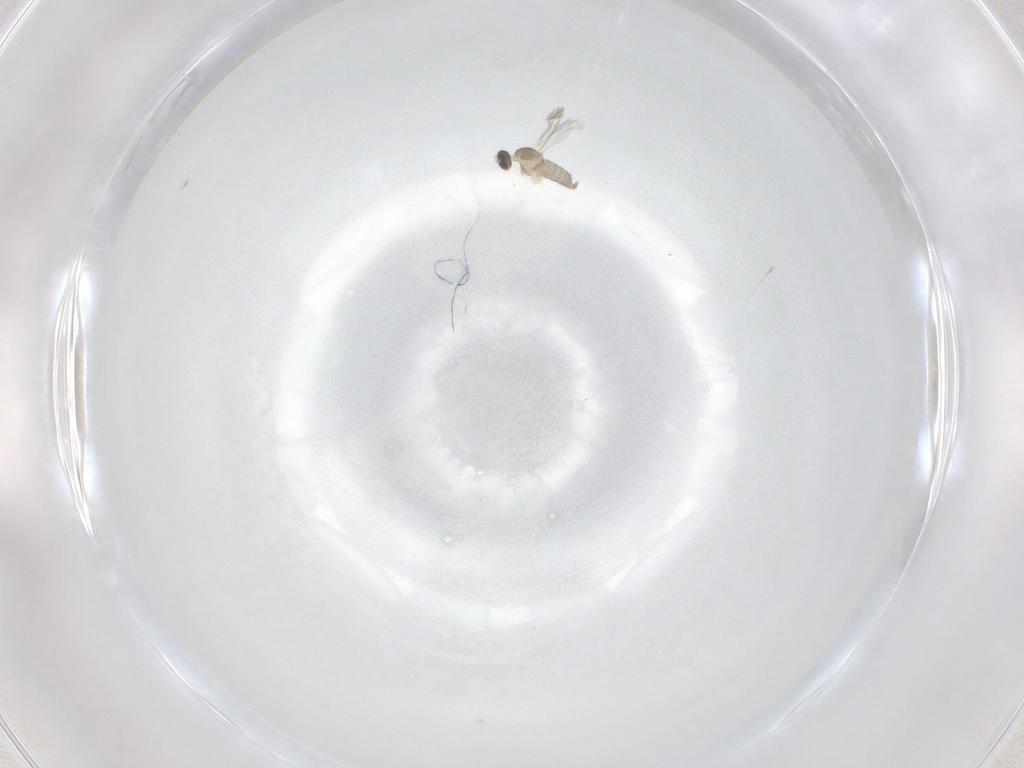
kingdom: Animalia
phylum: Arthropoda
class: Insecta
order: Diptera
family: Cecidomyiidae
